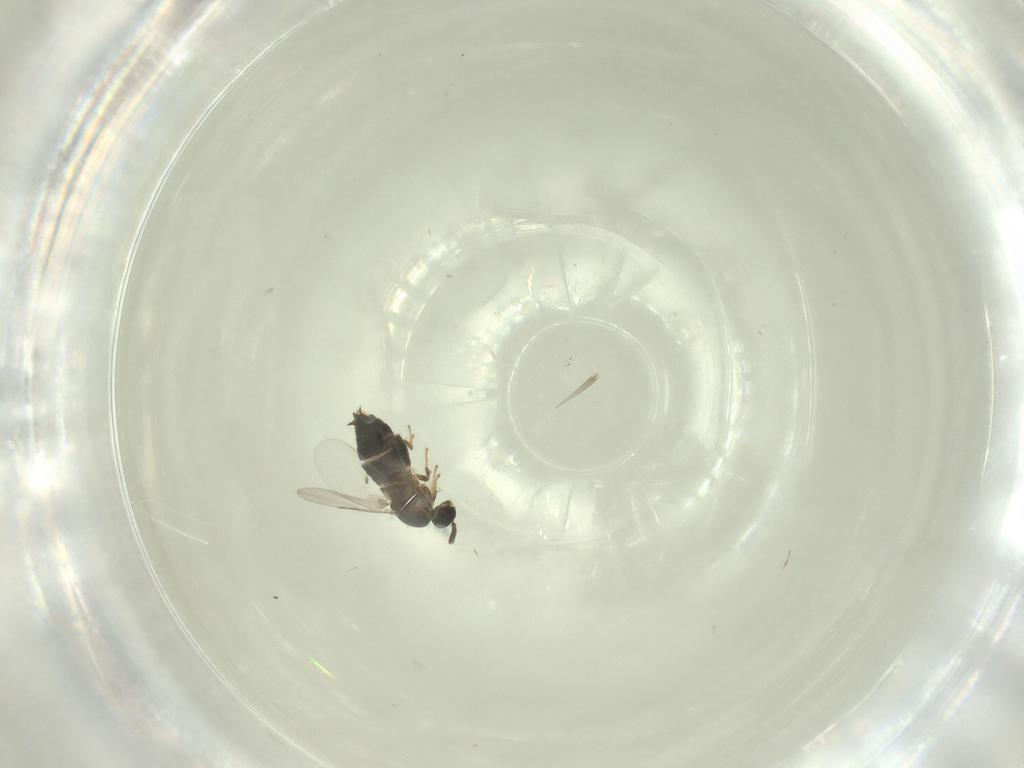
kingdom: Animalia
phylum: Arthropoda
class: Insecta
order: Diptera
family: Scatopsidae
